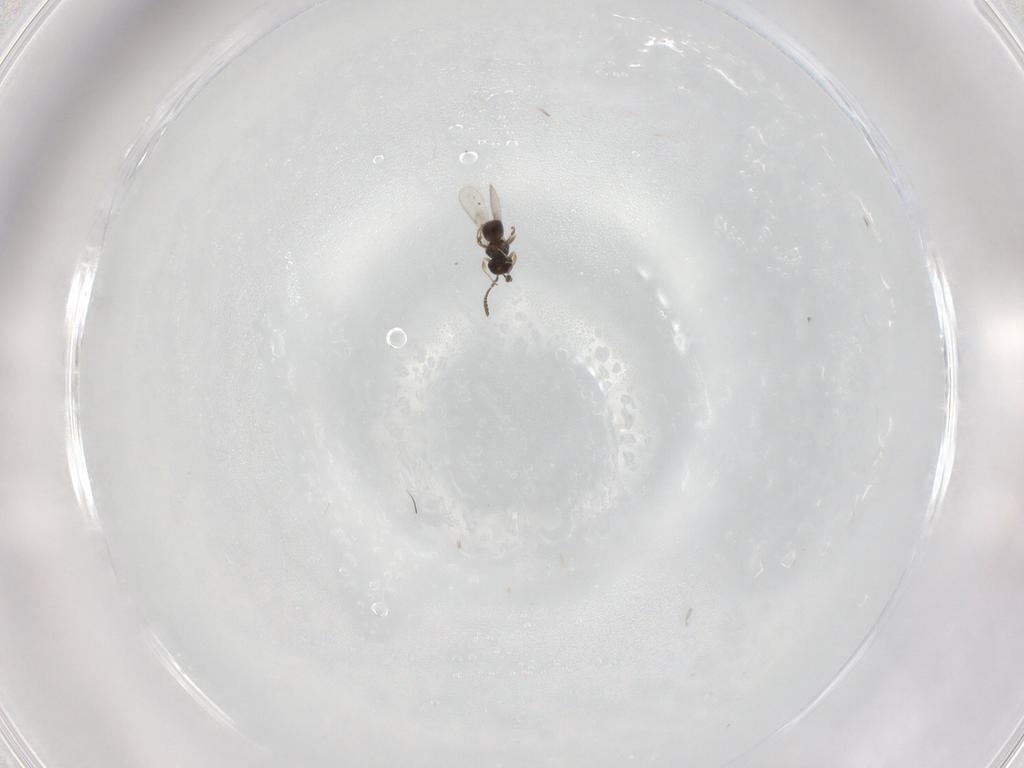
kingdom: Animalia
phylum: Arthropoda
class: Insecta
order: Hymenoptera
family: Scelionidae
